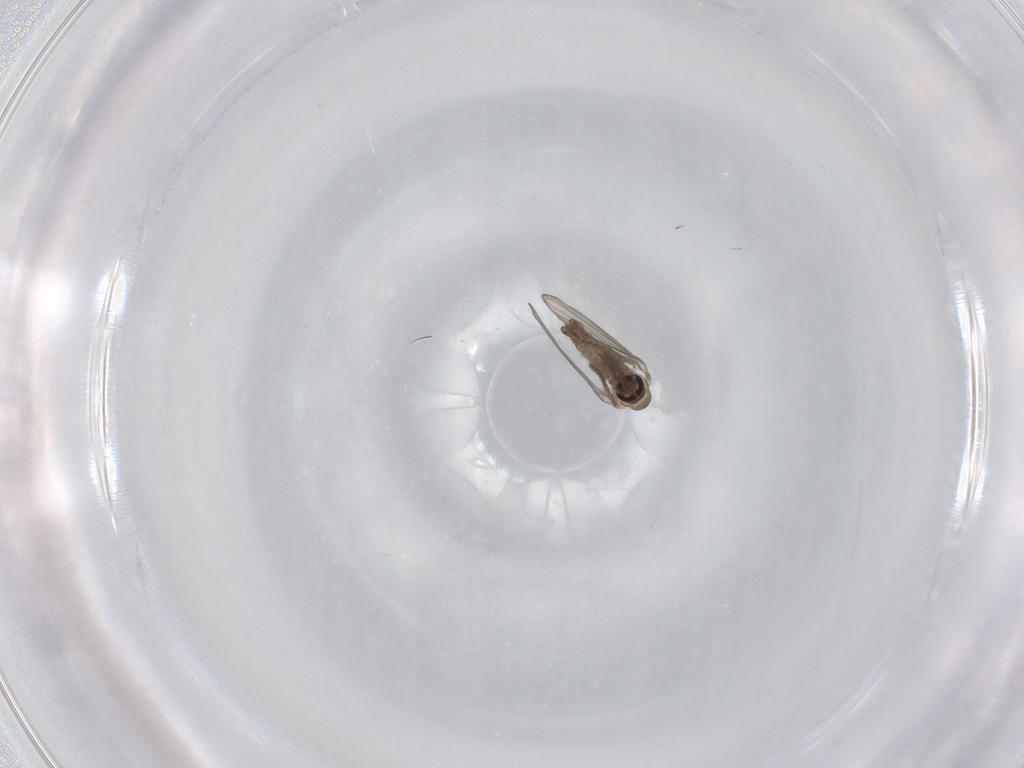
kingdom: Animalia
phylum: Arthropoda
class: Insecta
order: Diptera
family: Psychodidae
